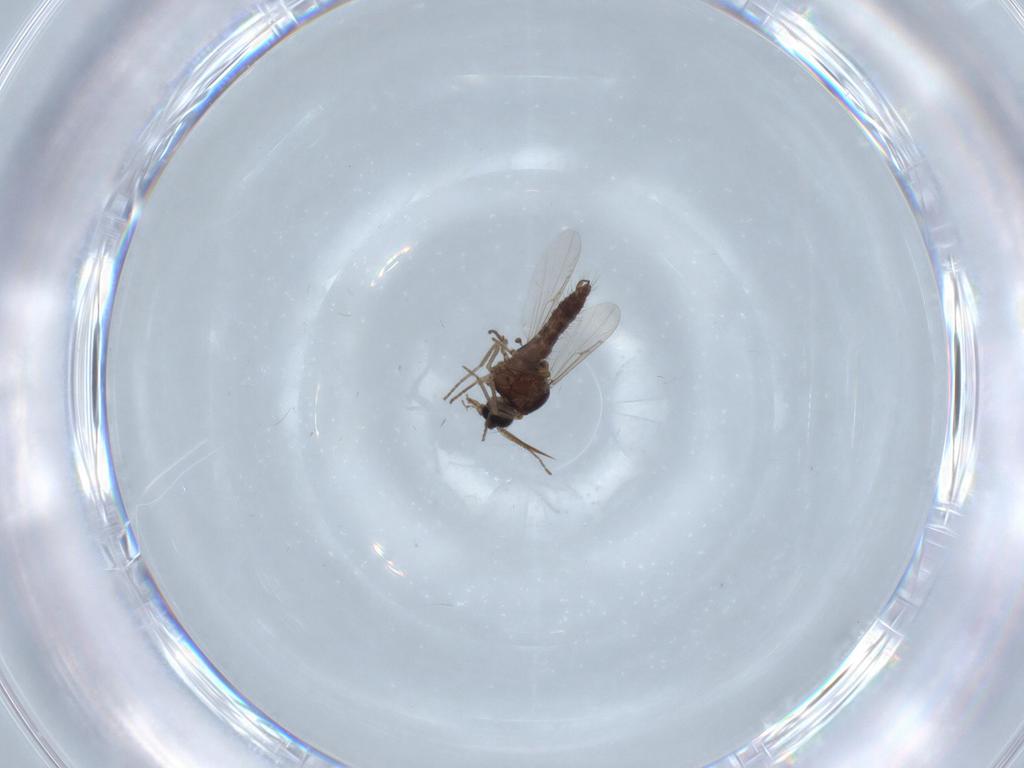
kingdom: Animalia
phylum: Arthropoda
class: Insecta
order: Diptera
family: Ceratopogonidae
